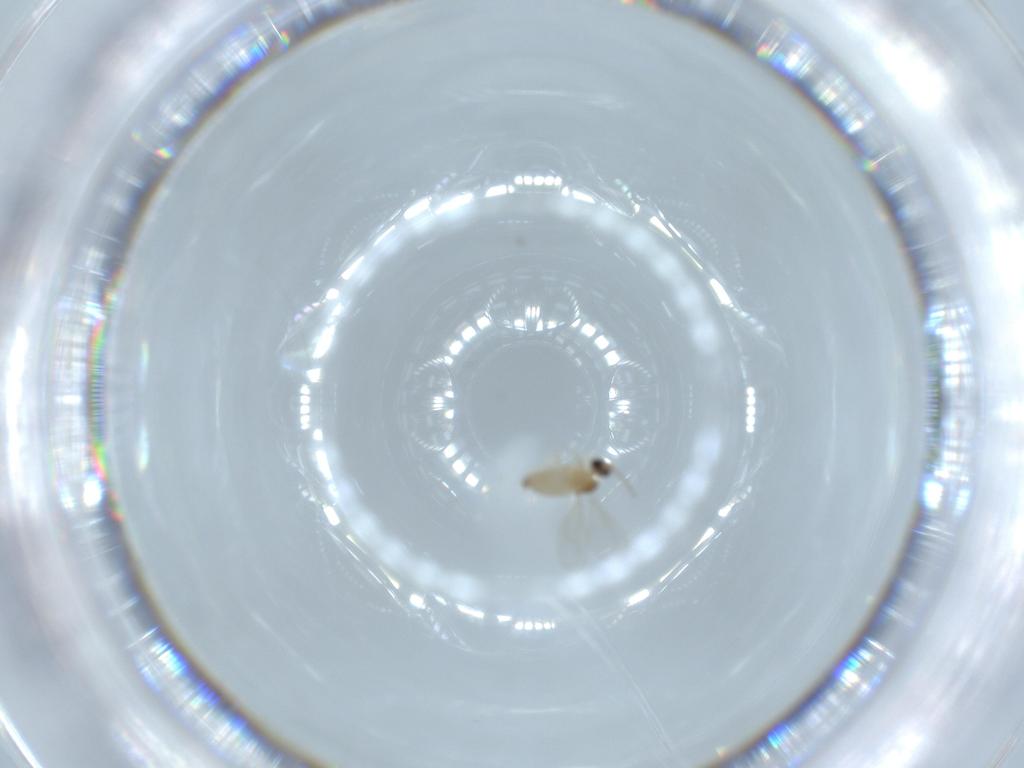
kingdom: Animalia
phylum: Arthropoda
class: Insecta
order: Diptera
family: Cecidomyiidae
